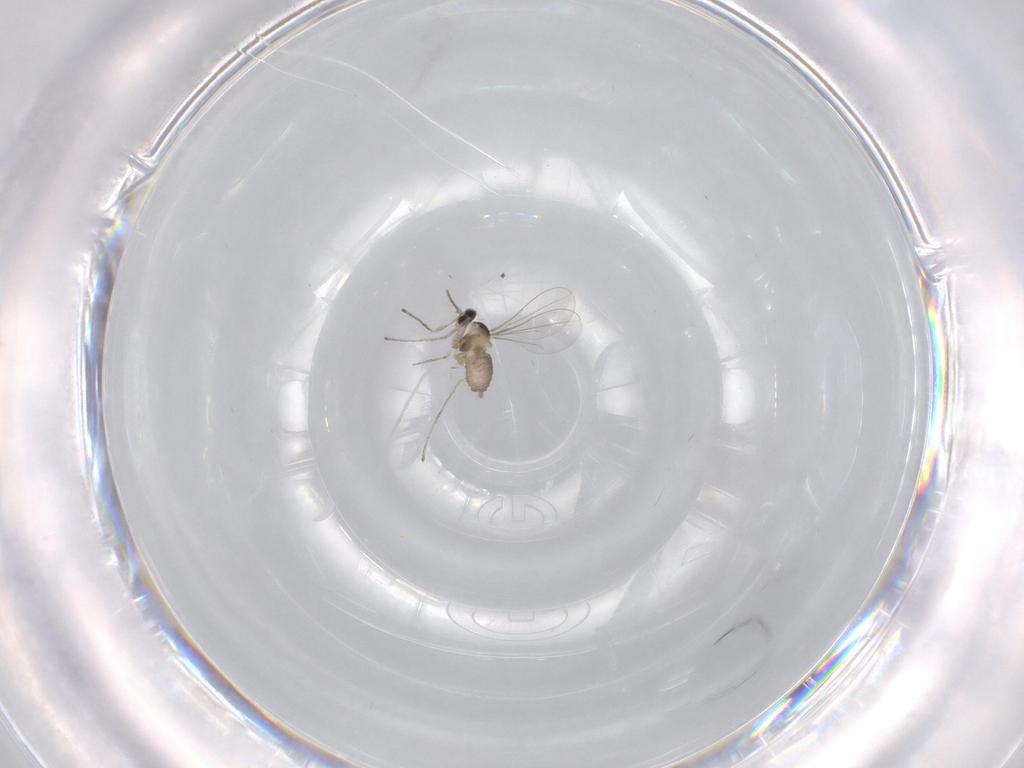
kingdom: Animalia
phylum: Arthropoda
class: Insecta
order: Diptera
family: Cecidomyiidae
